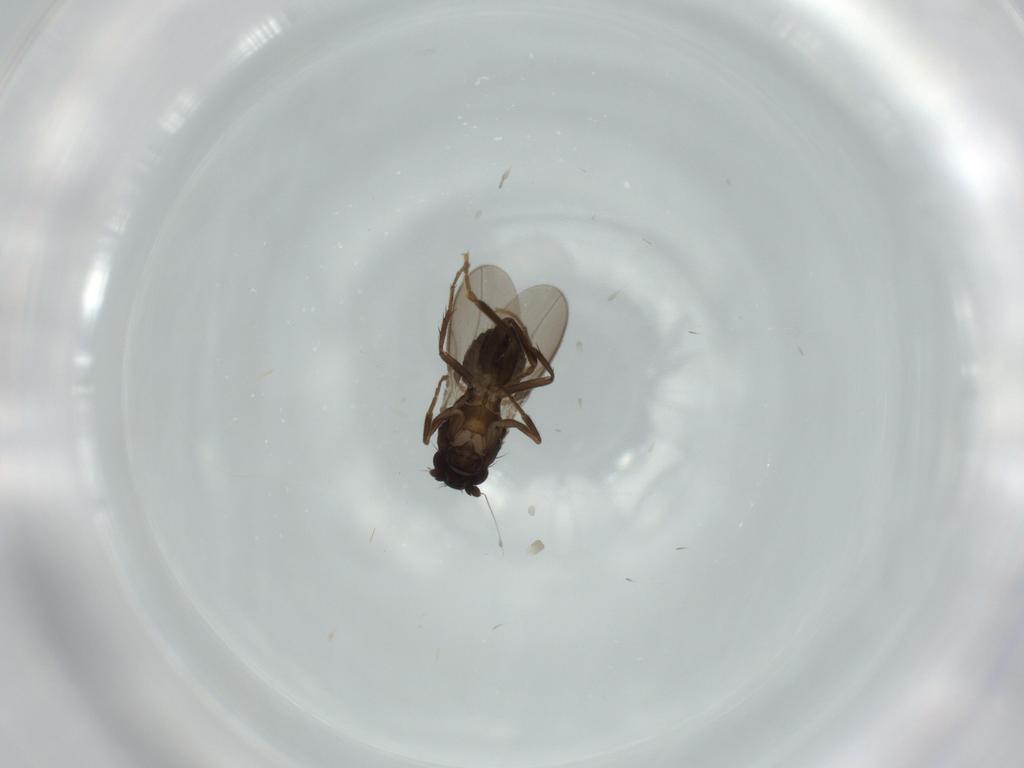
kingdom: Animalia
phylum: Arthropoda
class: Insecta
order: Diptera
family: Sphaeroceridae
